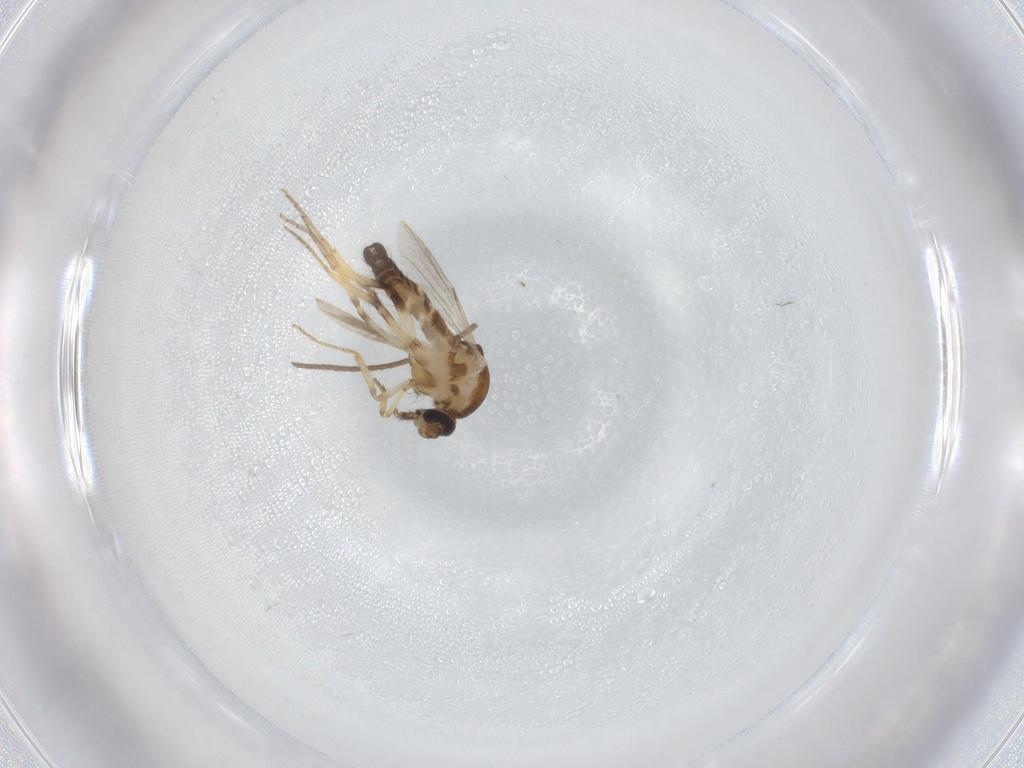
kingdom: Animalia
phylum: Arthropoda
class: Insecta
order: Diptera
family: Ceratopogonidae
